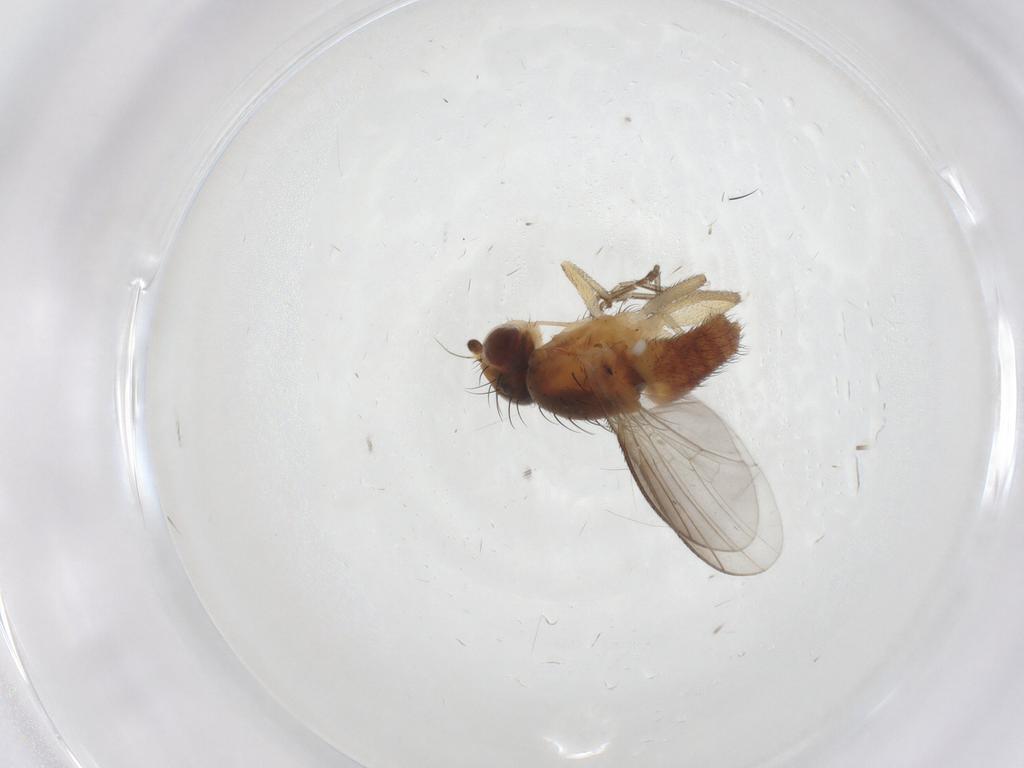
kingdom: Animalia
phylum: Arthropoda
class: Insecta
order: Diptera
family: Heleomyzidae
